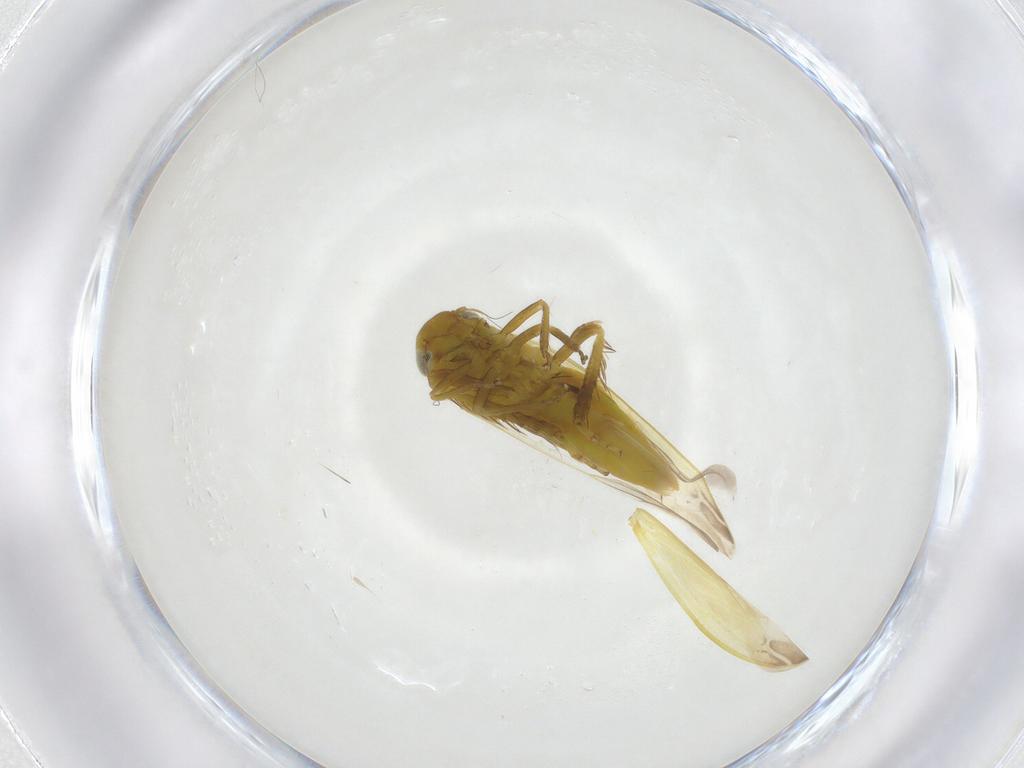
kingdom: Animalia
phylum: Arthropoda
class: Insecta
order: Hemiptera
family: Cicadellidae
